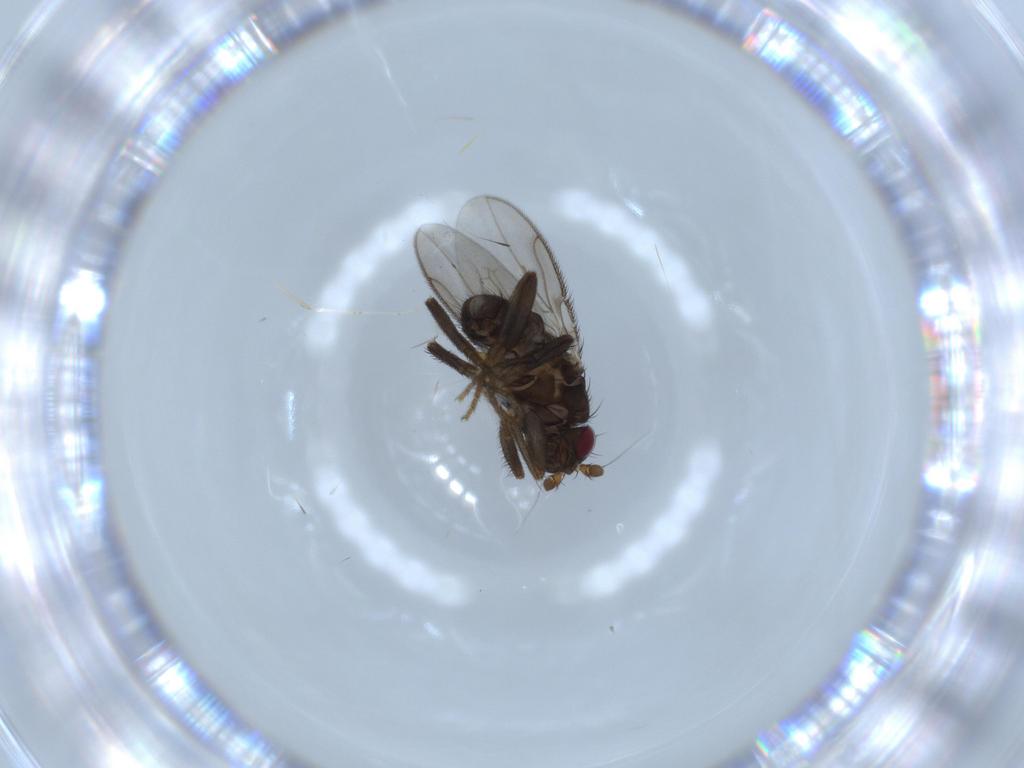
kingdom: Animalia
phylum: Arthropoda
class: Insecta
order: Diptera
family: Sphaeroceridae
